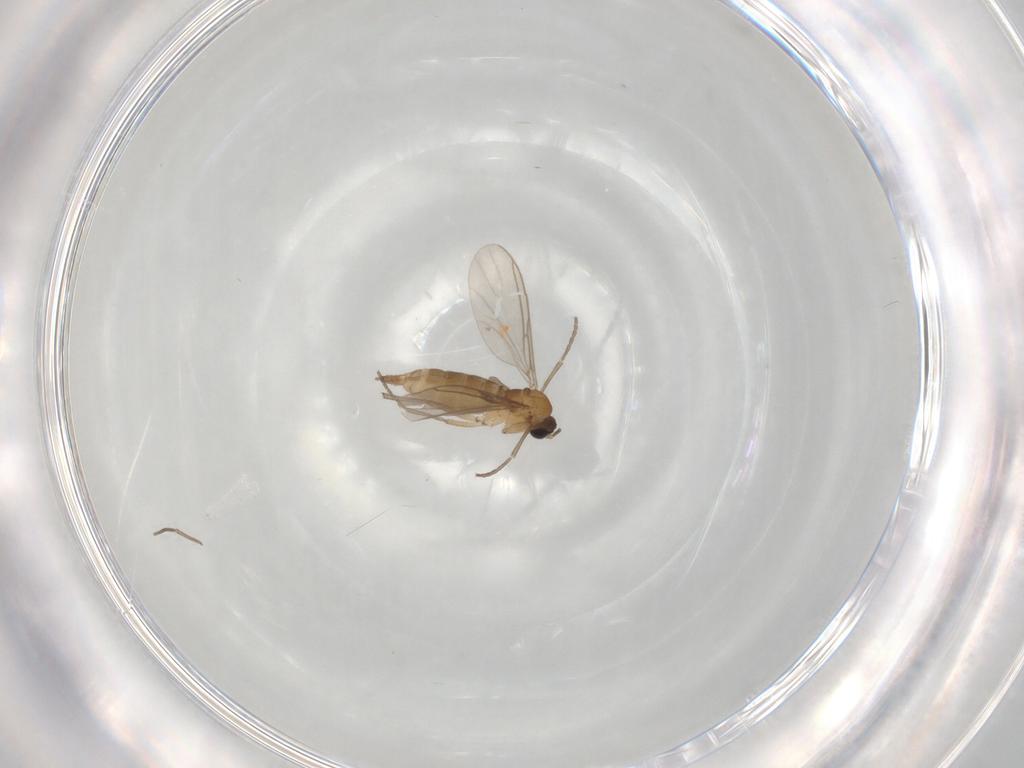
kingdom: Animalia
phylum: Arthropoda
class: Insecta
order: Diptera
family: Sciaridae
